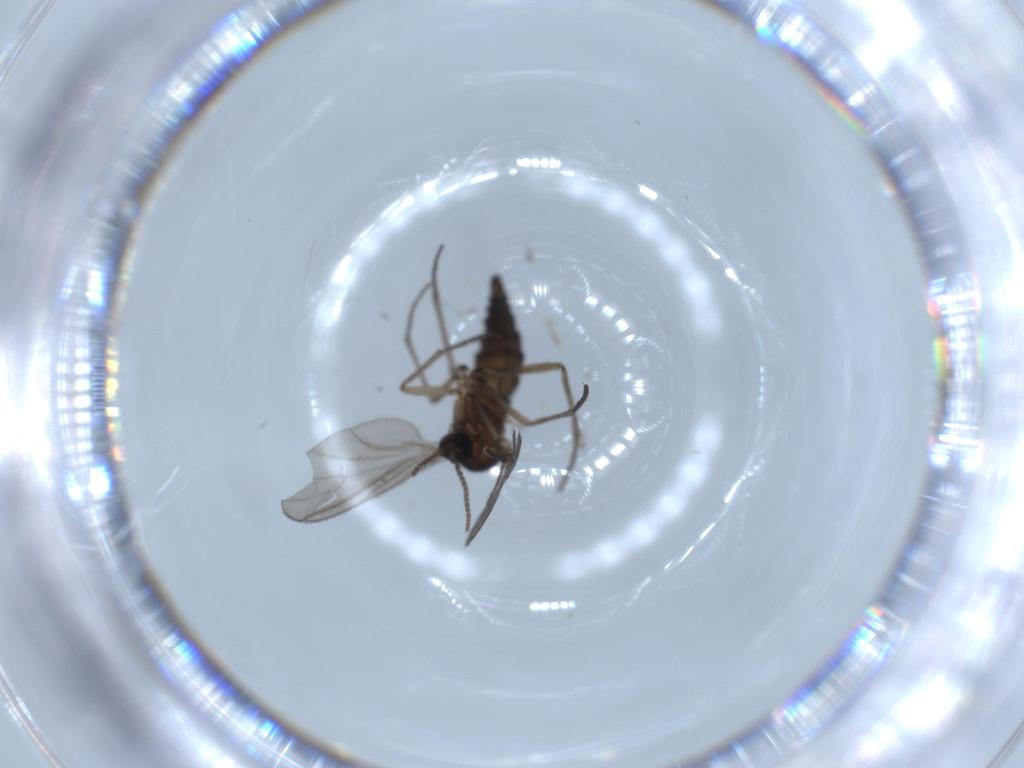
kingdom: Animalia
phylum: Arthropoda
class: Insecta
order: Diptera
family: Sciaridae
